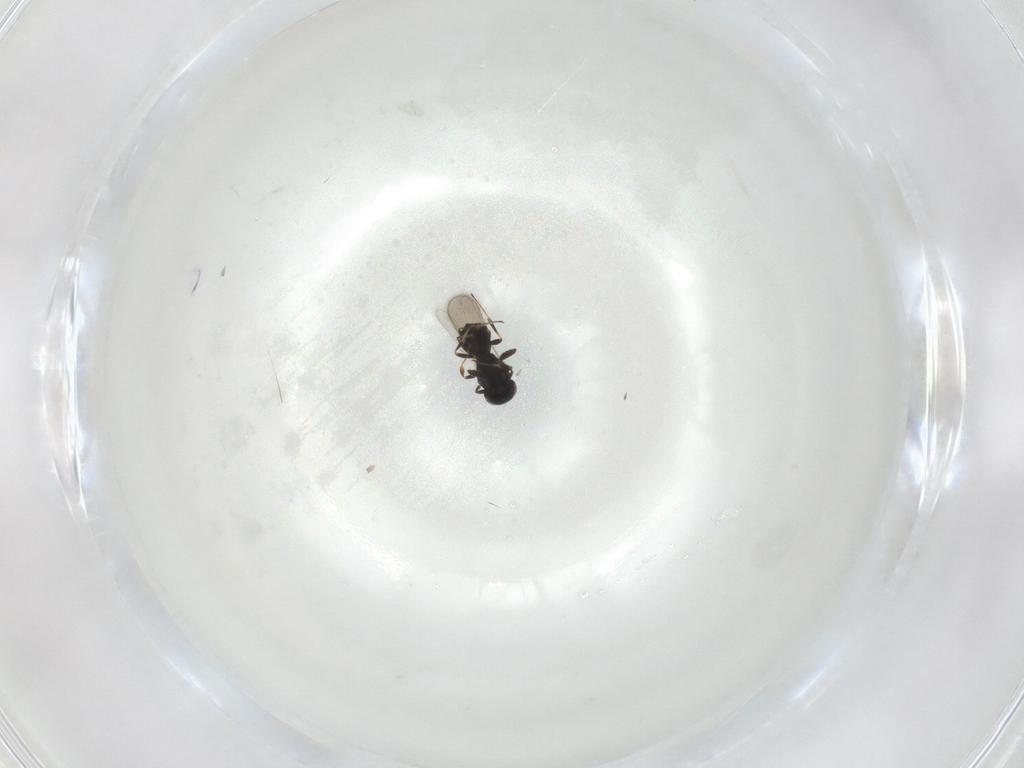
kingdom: Animalia
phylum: Arthropoda
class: Insecta
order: Hymenoptera
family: Scelionidae
